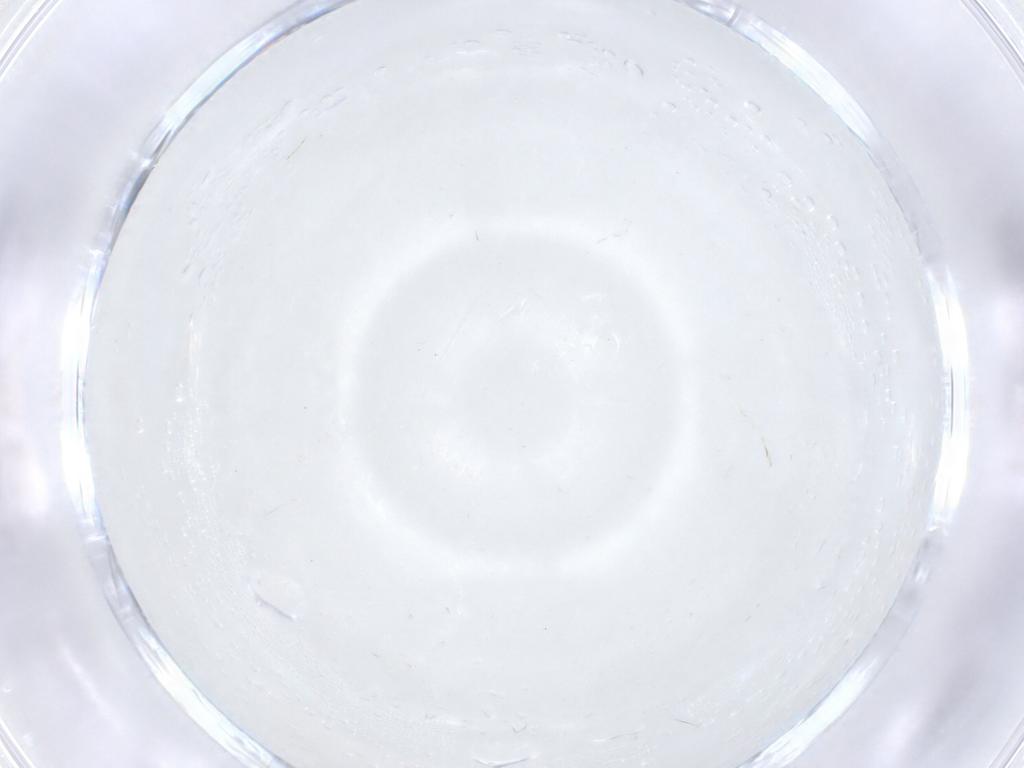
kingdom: Animalia
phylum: Arthropoda
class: Insecta
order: Diptera
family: Cecidomyiidae
